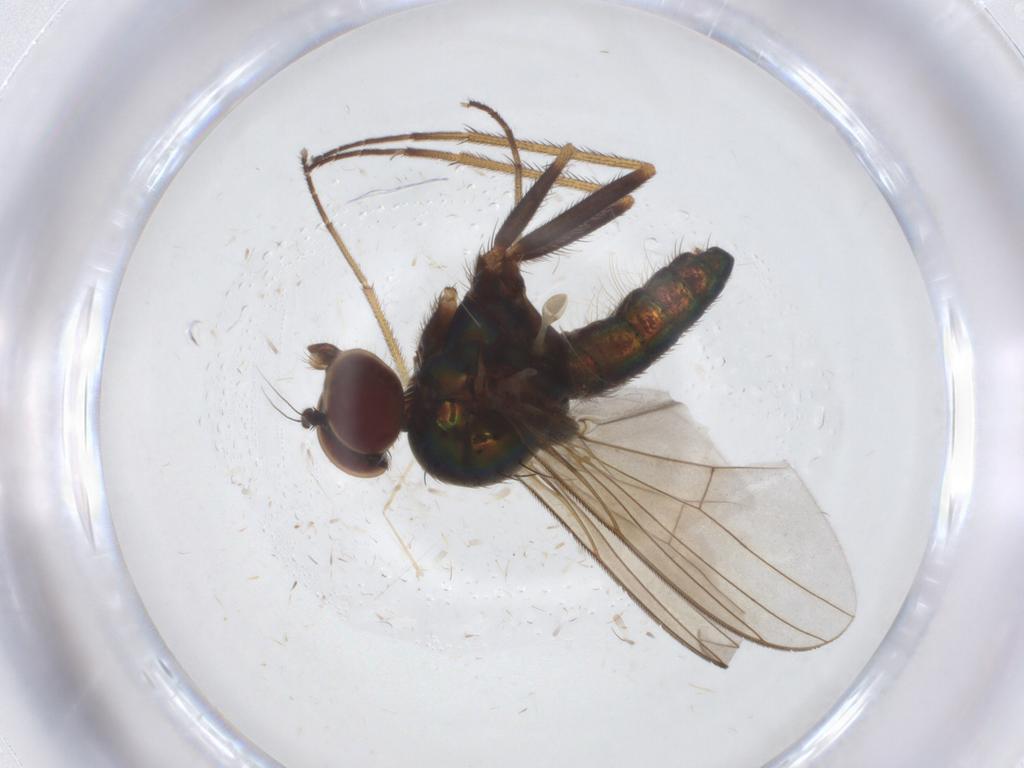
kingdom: Animalia
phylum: Arthropoda
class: Insecta
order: Diptera
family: Dolichopodidae
